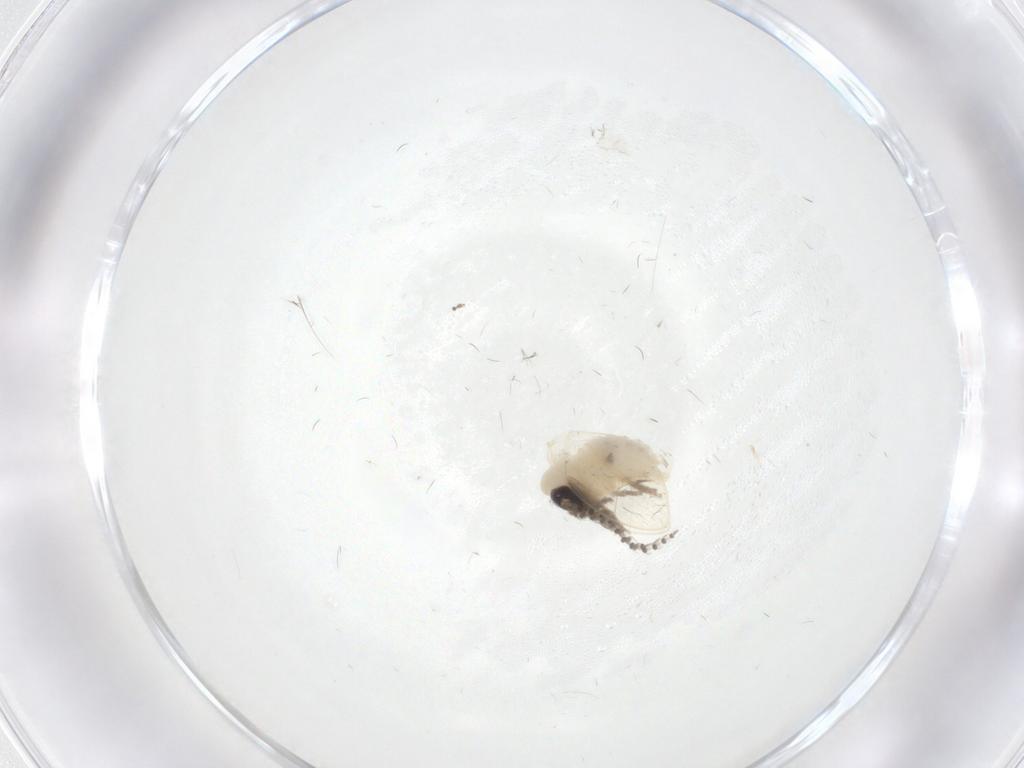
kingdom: Animalia
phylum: Arthropoda
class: Insecta
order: Diptera
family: Psychodidae
